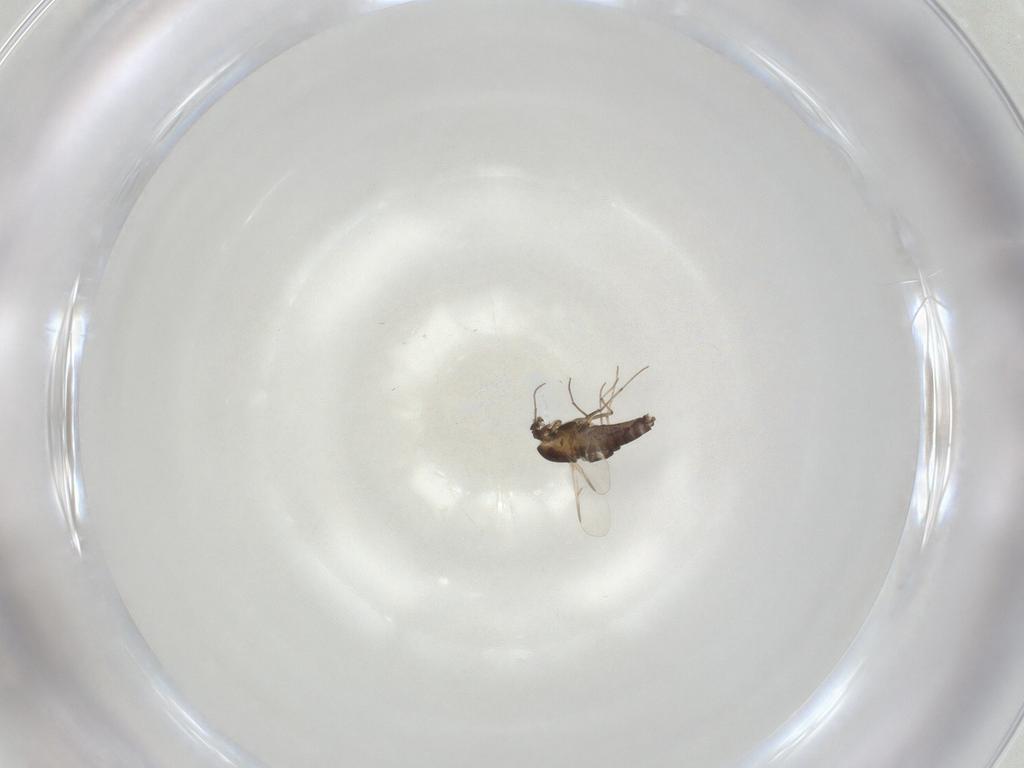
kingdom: Animalia
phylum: Arthropoda
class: Insecta
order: Diptera
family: Chironomidae
